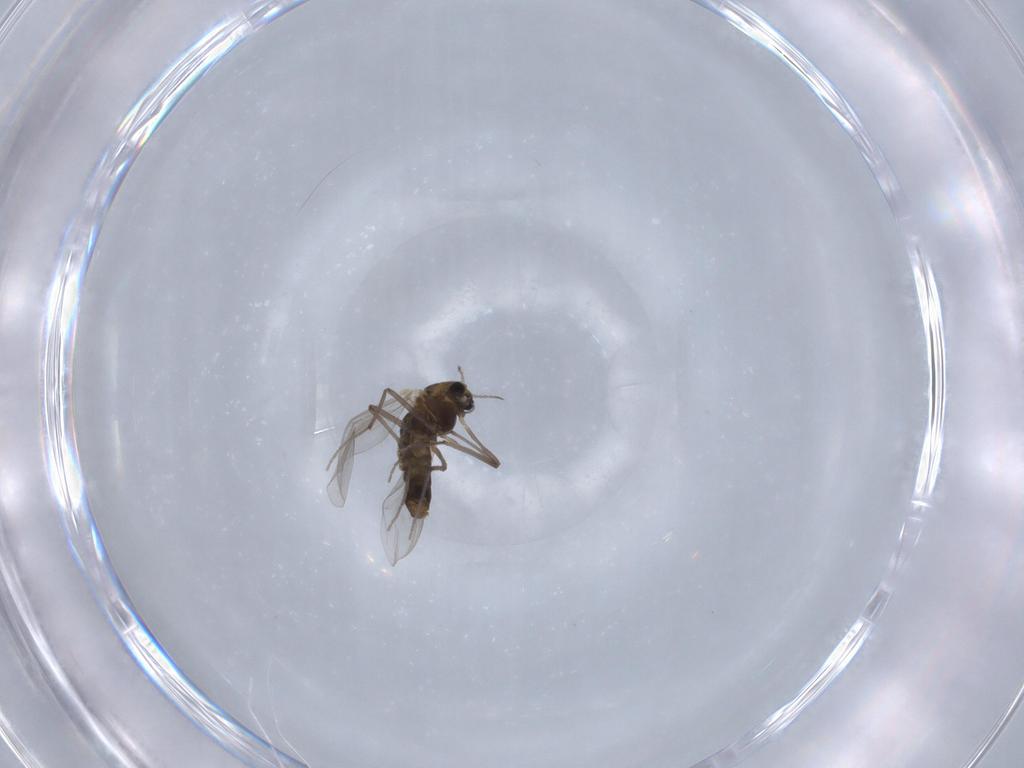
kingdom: Animalia
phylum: Arthropoda
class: Insecta
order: Diptera
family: Chironomidae
